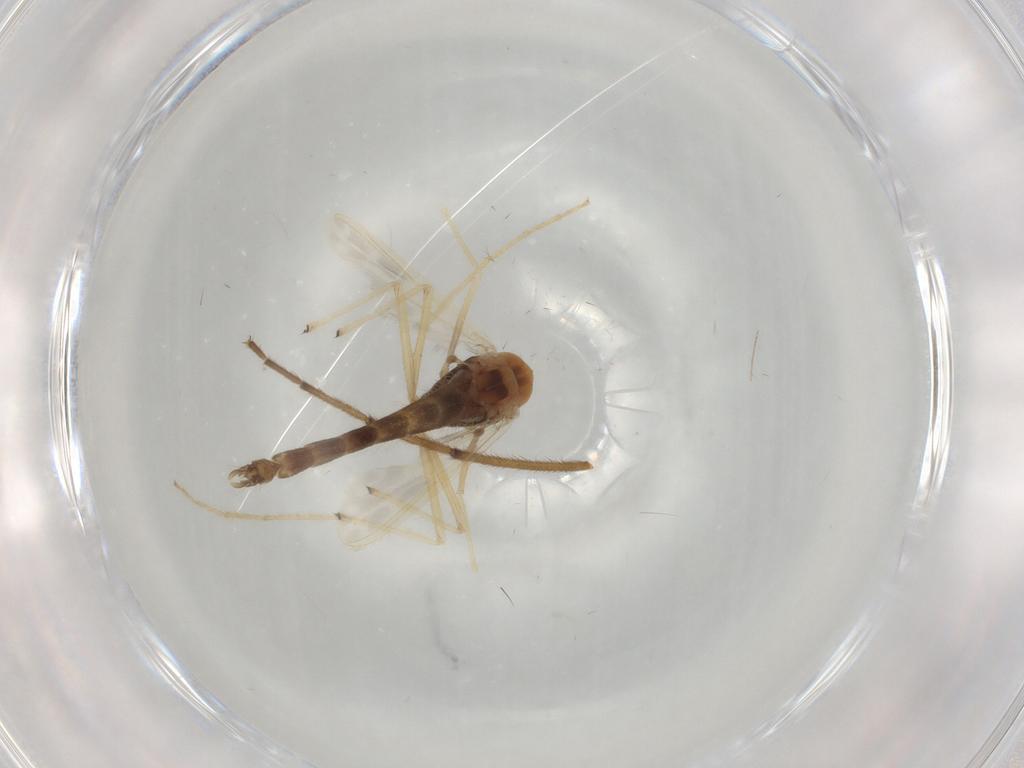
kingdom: Animalia
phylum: Arthropoda
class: Insecta
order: Diptera
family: Chironomidae
